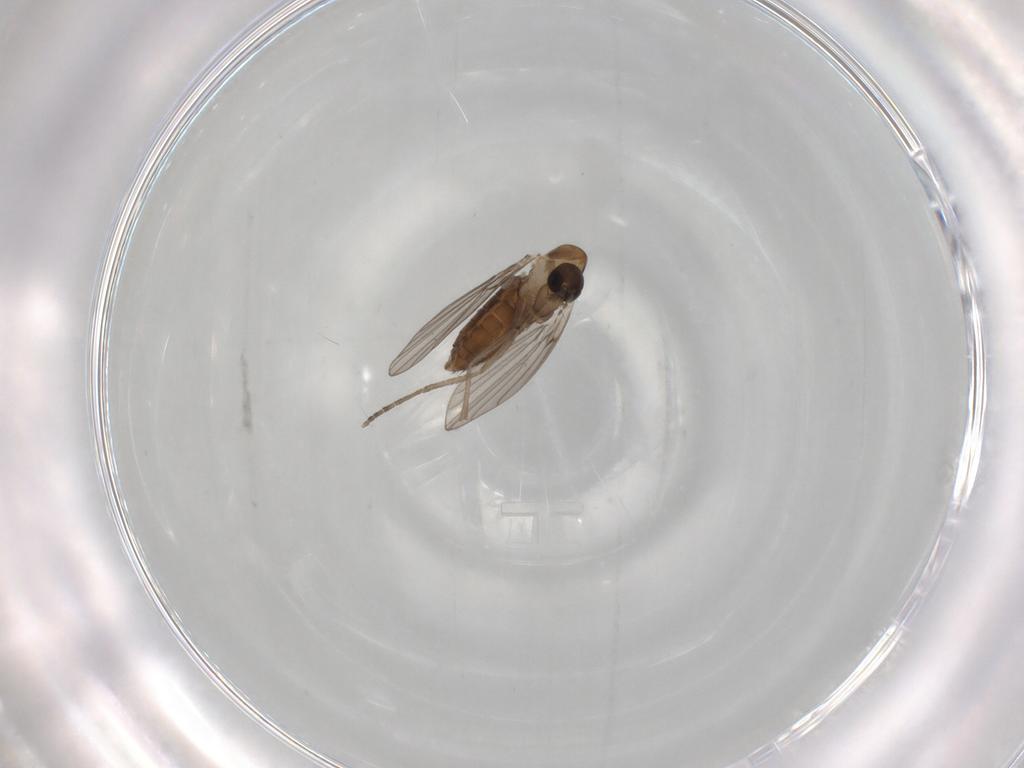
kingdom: Animalia
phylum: Arthropoda
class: Insecta
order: Diptera
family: Psychodidae
